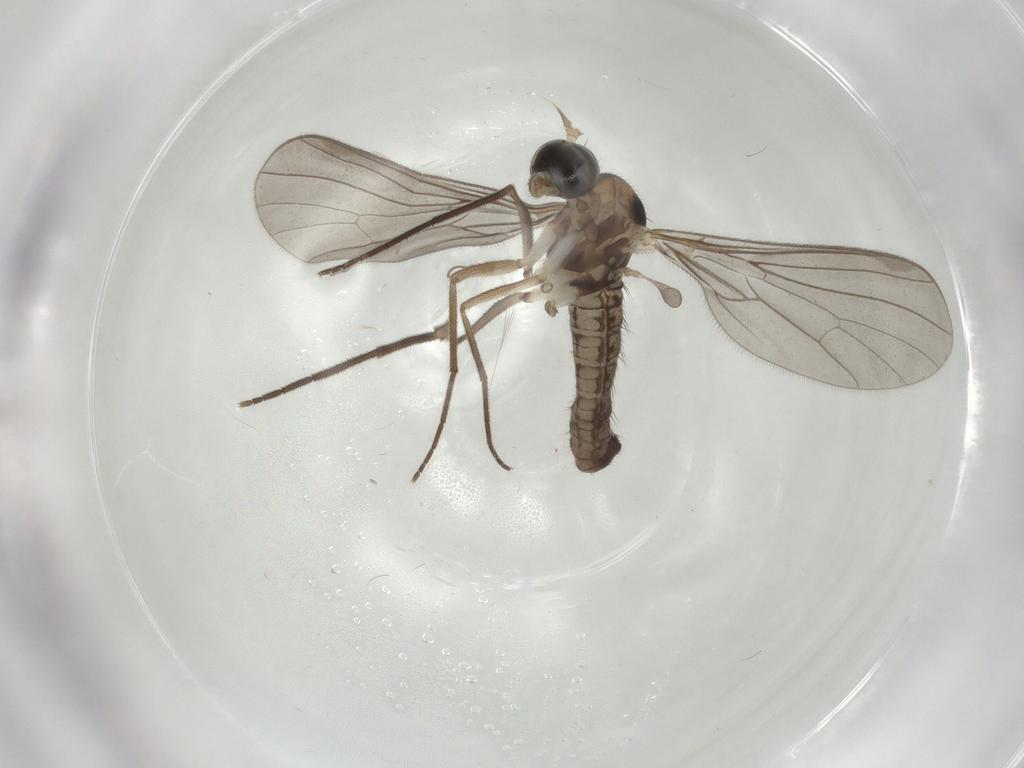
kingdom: Animalia
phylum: Arthropoda
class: Insecta
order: Diptera
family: Empididae
